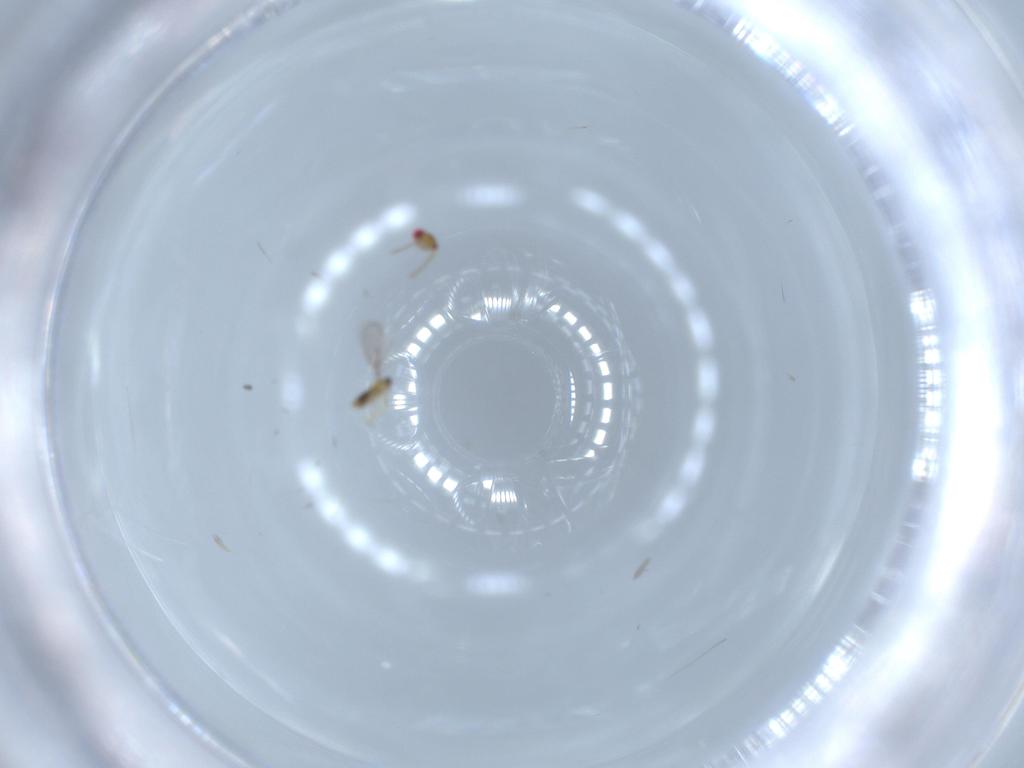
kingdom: Animalia
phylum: Arthropoda
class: Insecta
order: Hymenoptera
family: Aphelinidae
